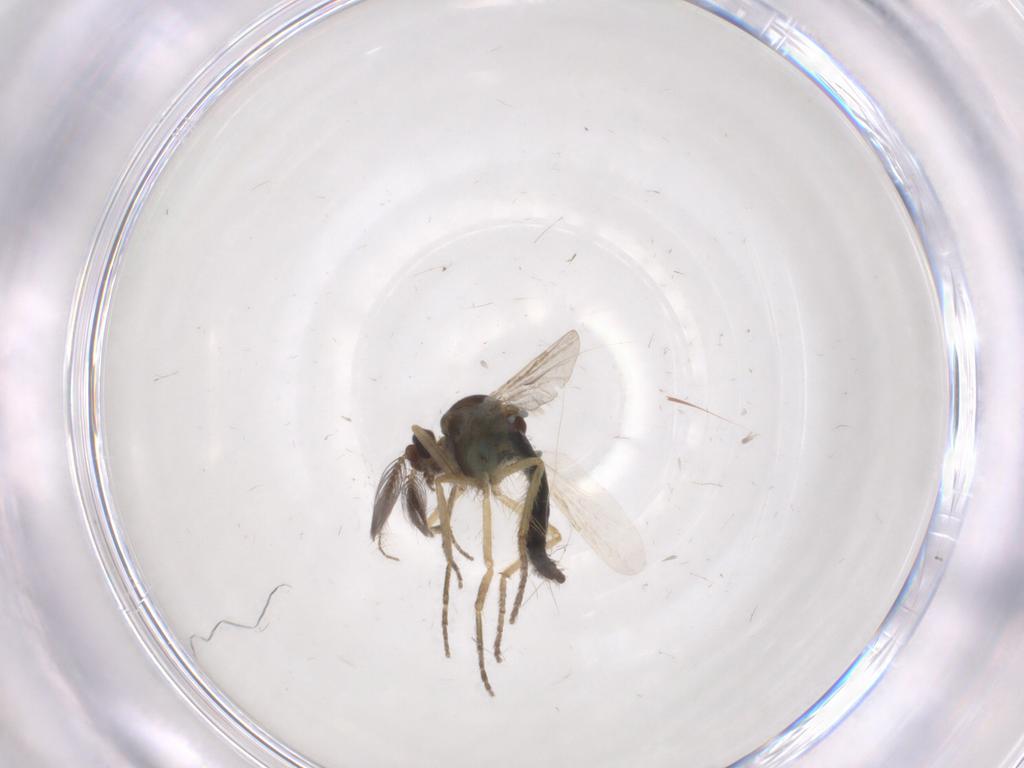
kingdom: Animalia
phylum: Arthropoda
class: Insecta
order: Diptera
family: Ceratopogonidae
